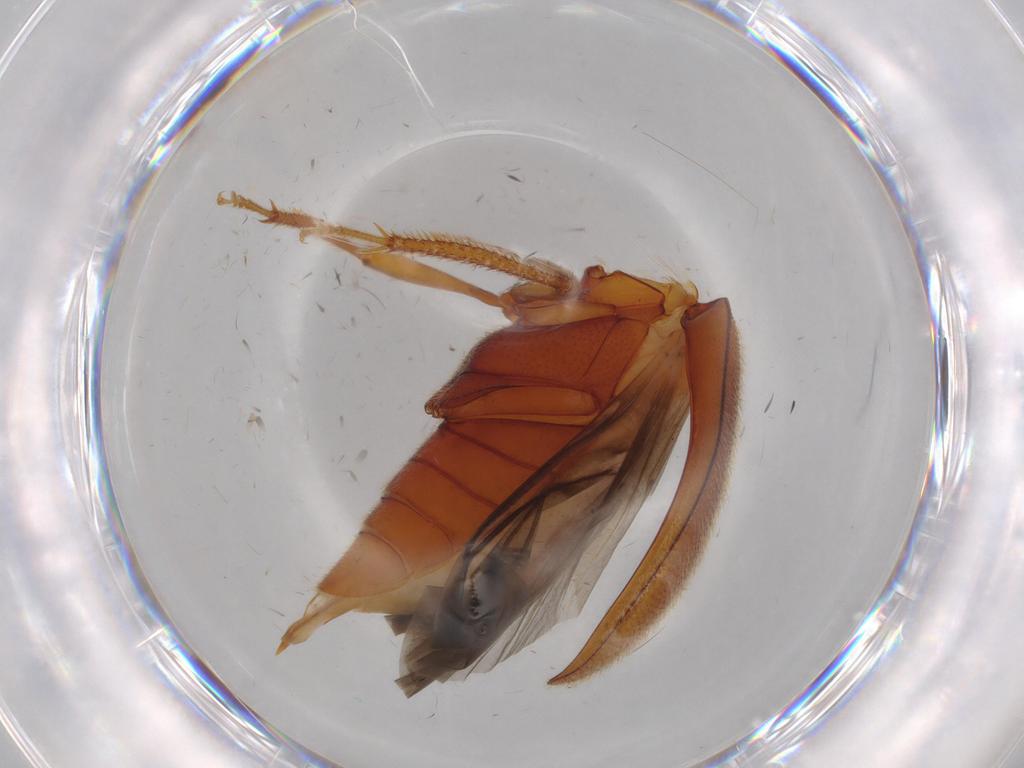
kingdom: Animalia
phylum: Arthropoda
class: Insecta
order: Coleoptera
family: Ptilodactylidae
